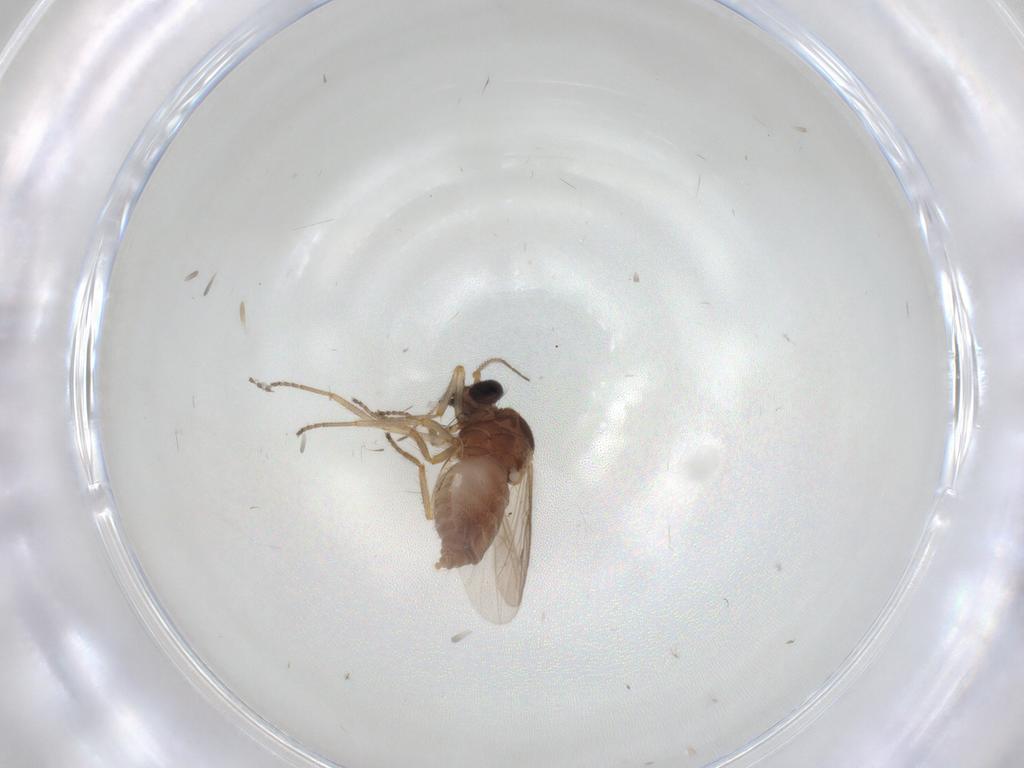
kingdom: Animalia
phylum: Arthropoda
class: Insecta
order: Diptera
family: Ceratopogonidae
